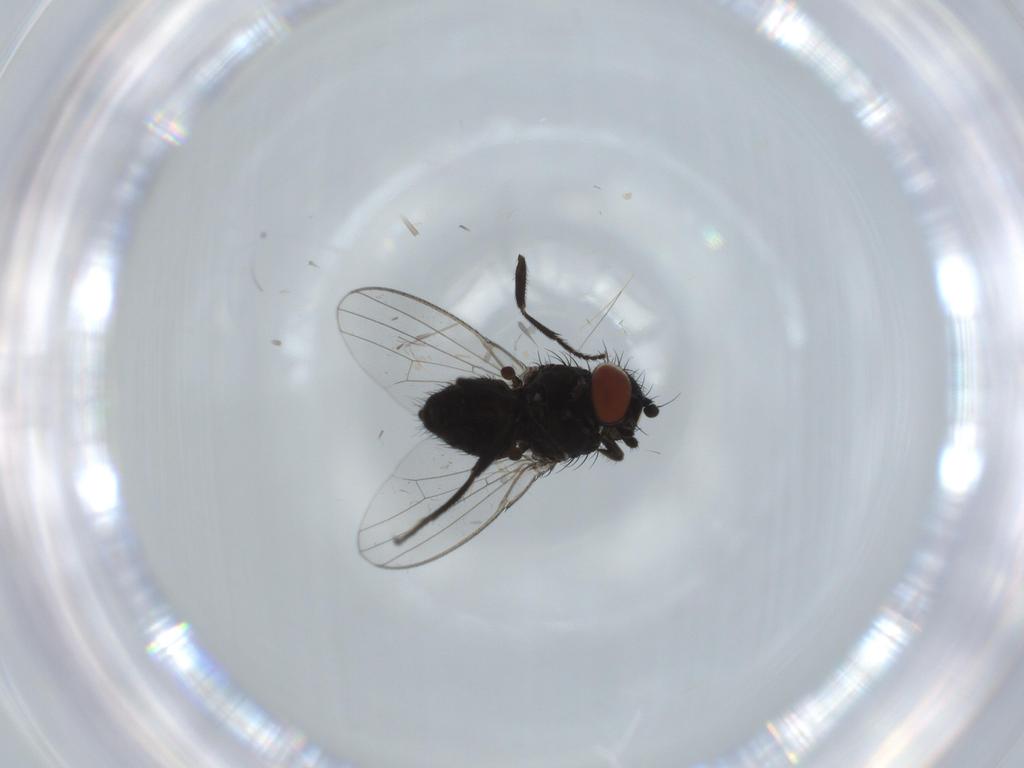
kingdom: Animalia
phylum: Arthropoda
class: Insecta
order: Diptera
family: Milichiidae
